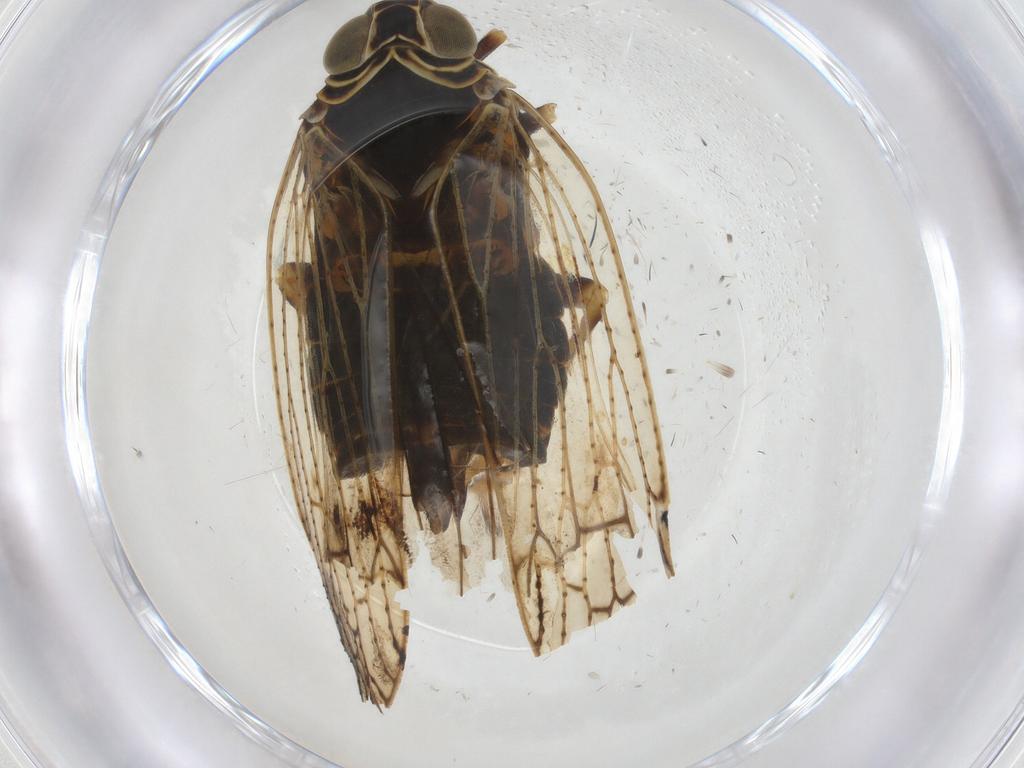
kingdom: Animalia
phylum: Arthropoda
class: Insecta
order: Hemiptera
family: Cixiidae
